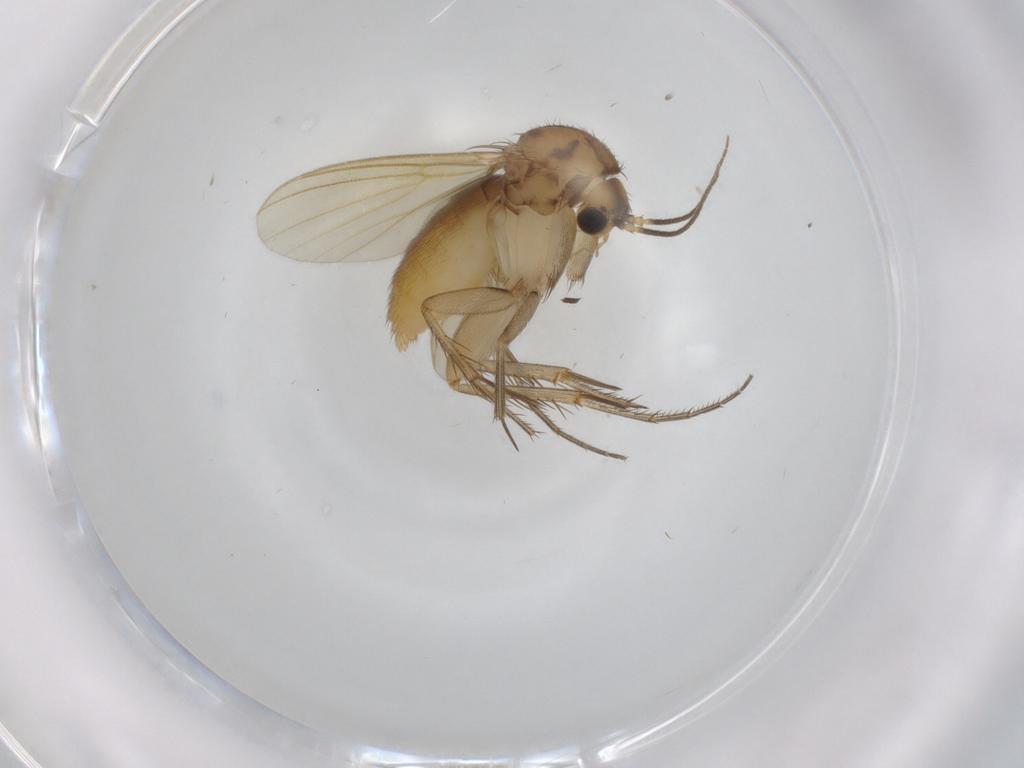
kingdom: Animalia
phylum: Arthropoda
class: Insecta
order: Diptera
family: Mycetophilidae
